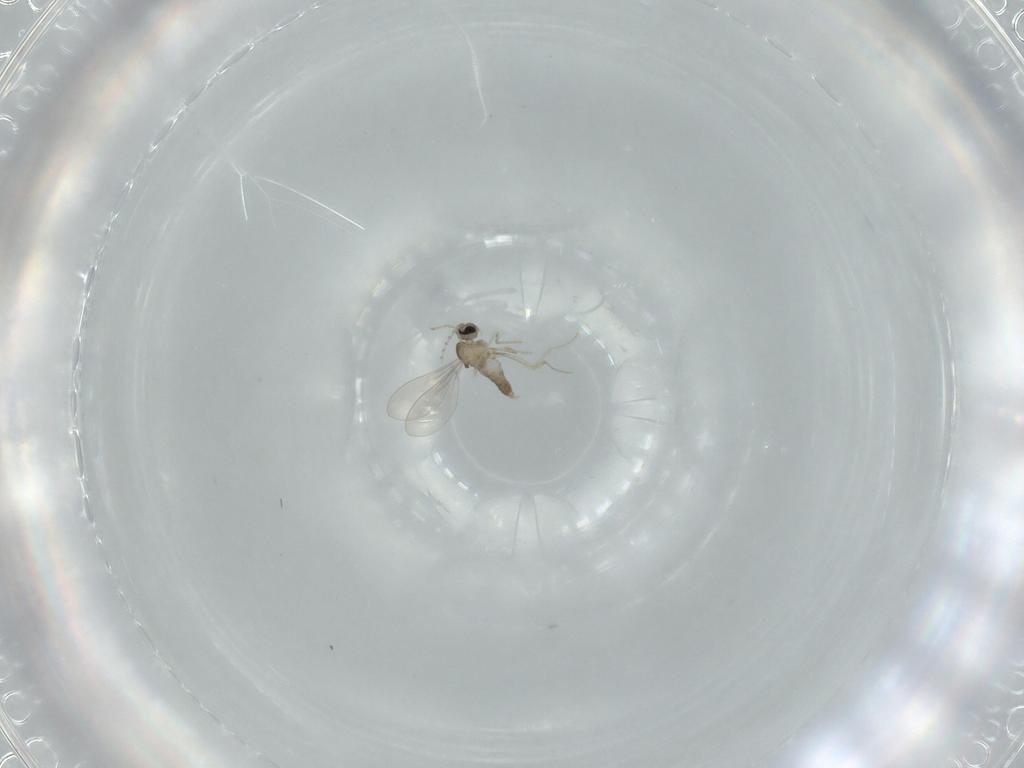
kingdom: Animalia
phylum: Arthropoda
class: Insecta
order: Diptera
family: Cecidomyiidae
